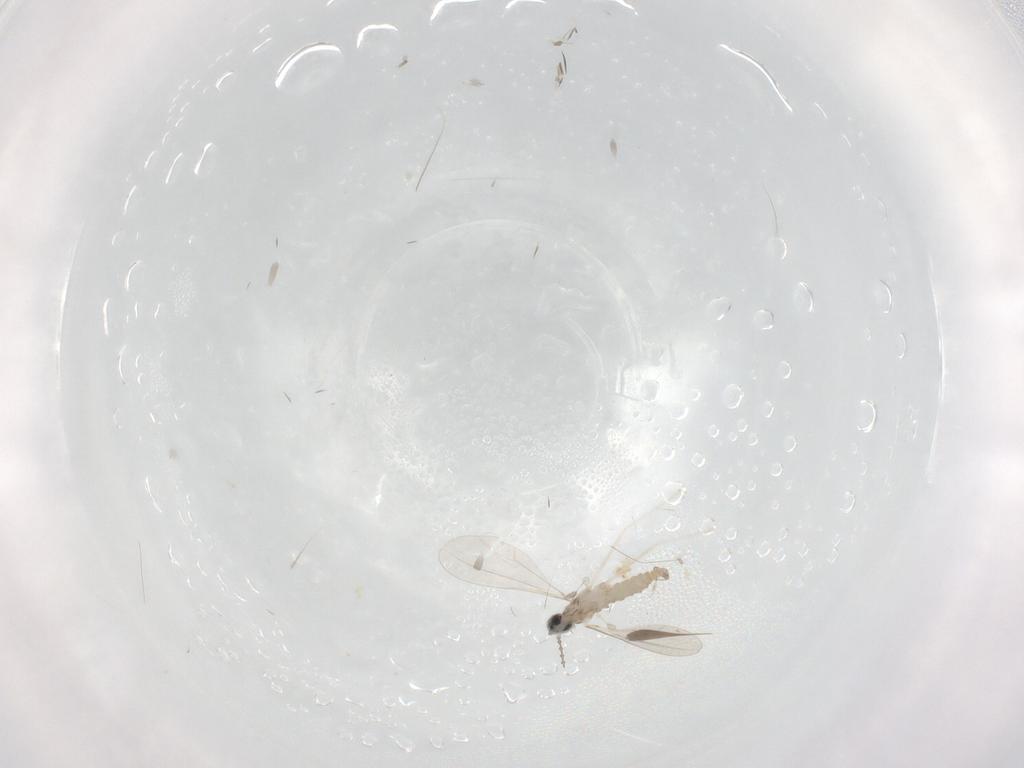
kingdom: Animalia
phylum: Arthropoda
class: Insecta
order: Diptera
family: Cecidomyiidae
